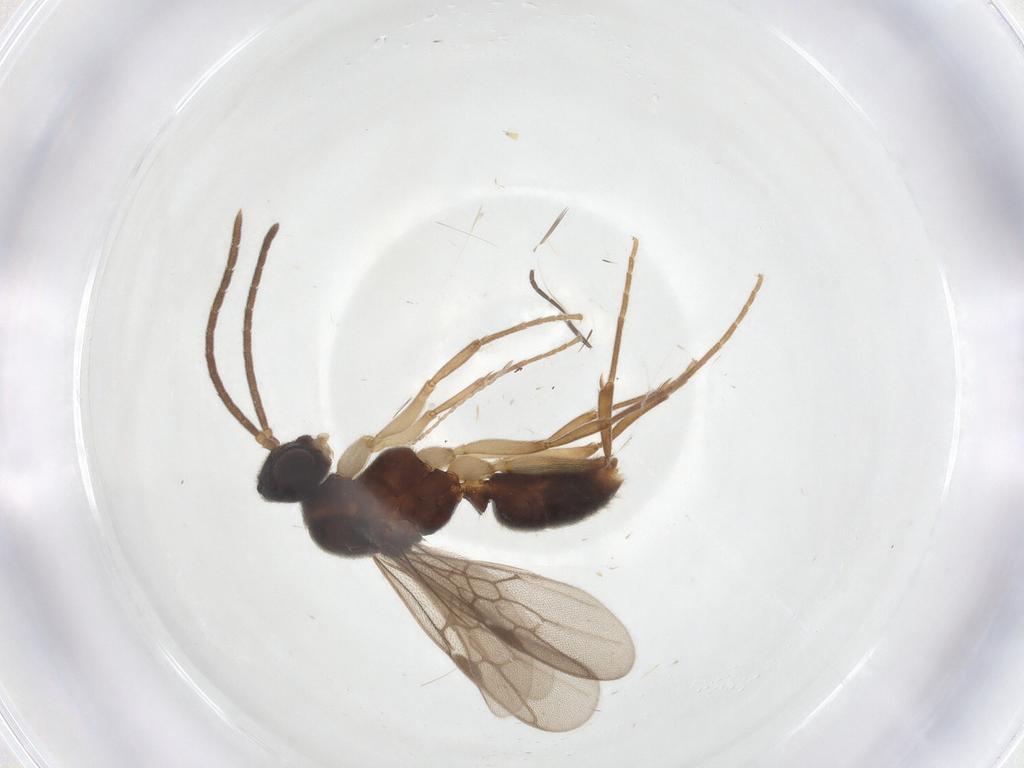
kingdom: Animalia
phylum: Arthropoda
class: Insecta
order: Hymenoptera
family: Formicidae
